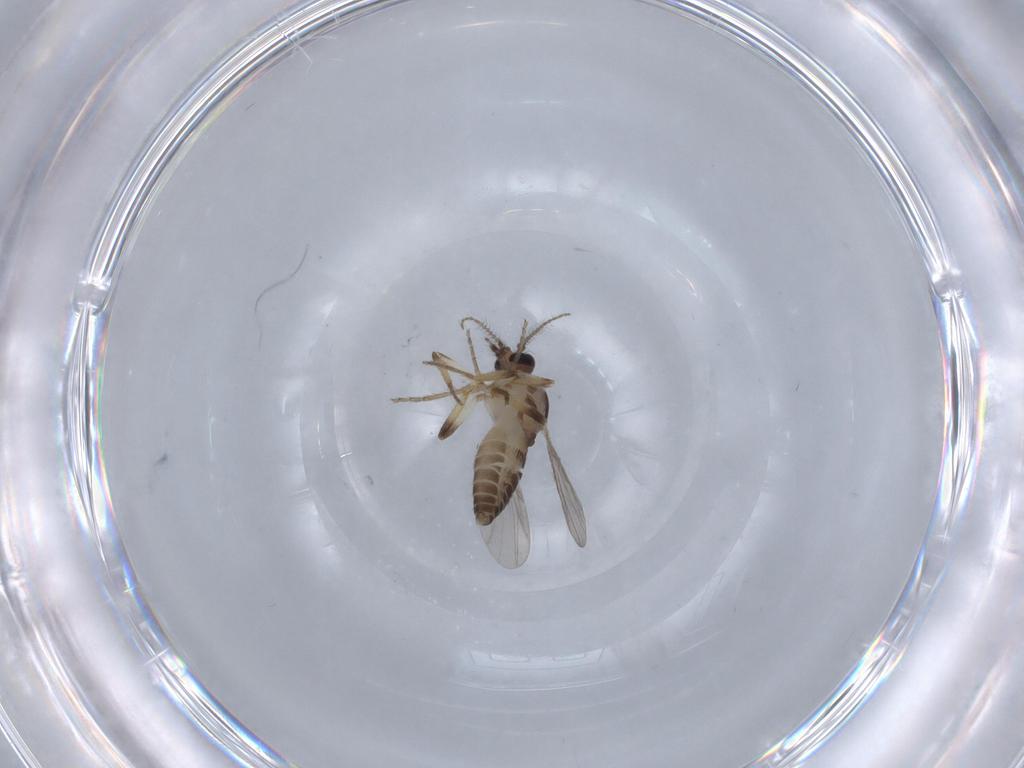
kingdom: Animalia
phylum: Arthropoda
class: Insecta
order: Diptera
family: Ceratopogonidae
